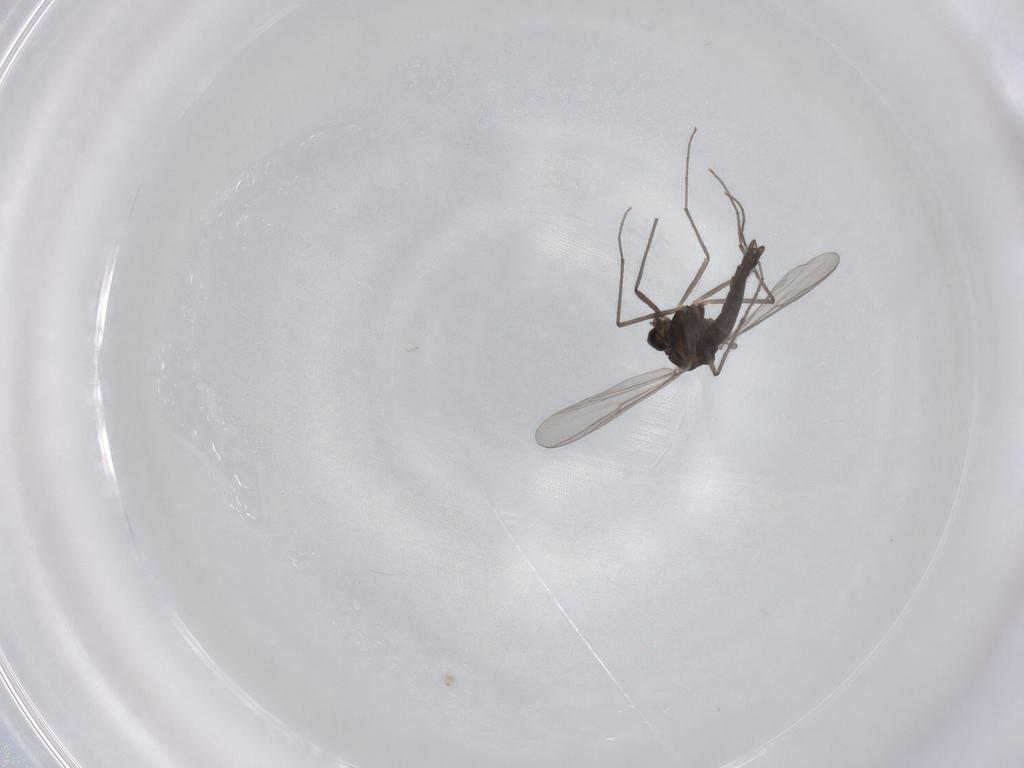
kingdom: Animalia
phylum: Arthropoda
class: Insecta
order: Diptera
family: Chironomidae
